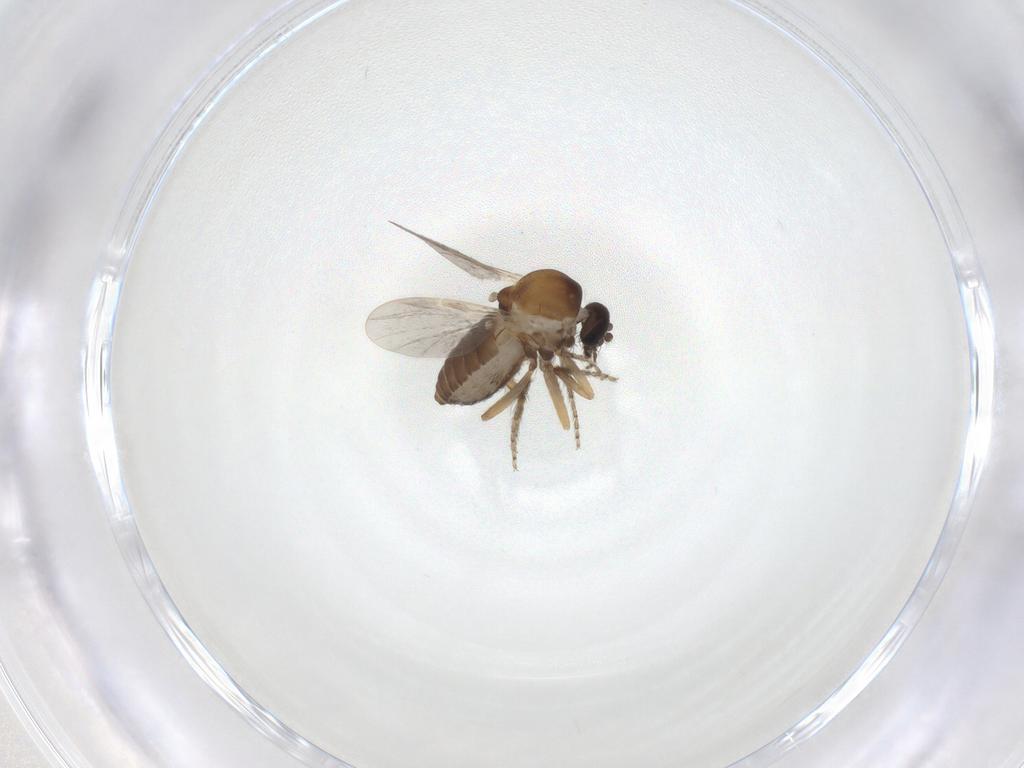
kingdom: Animalia
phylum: Arthropoda
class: Insecta
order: Diptera
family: Ceratopogonidae
